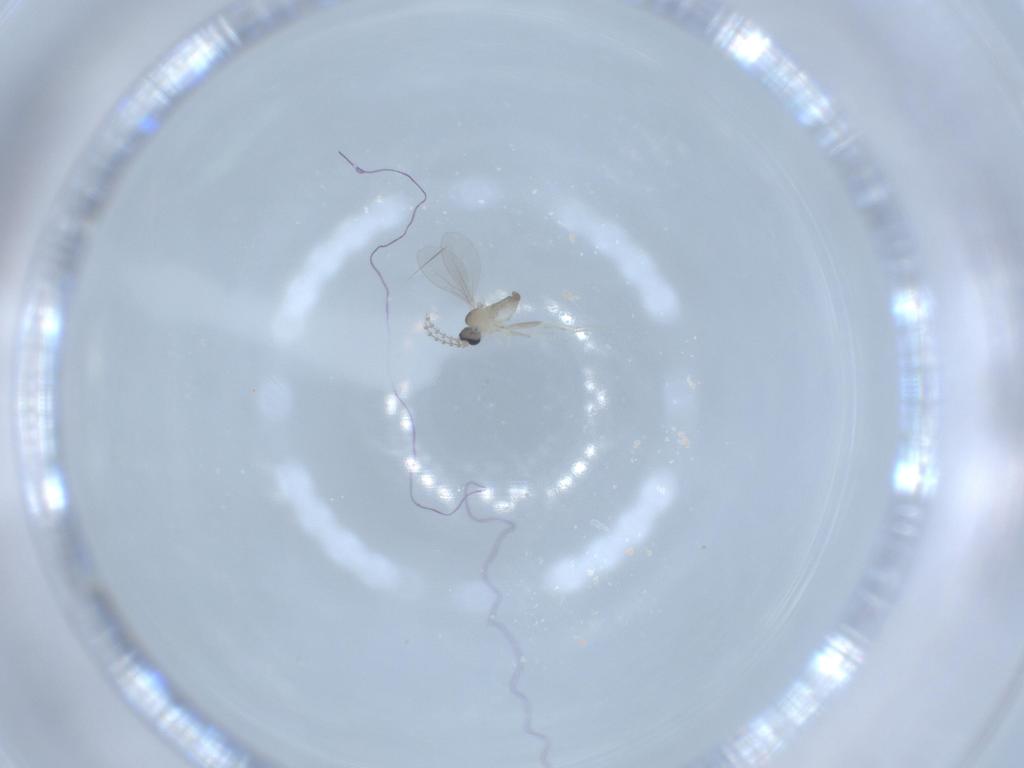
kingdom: Animalia
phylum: Arthropoda
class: Insecta
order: Diptera
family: Cecidomyiidae
